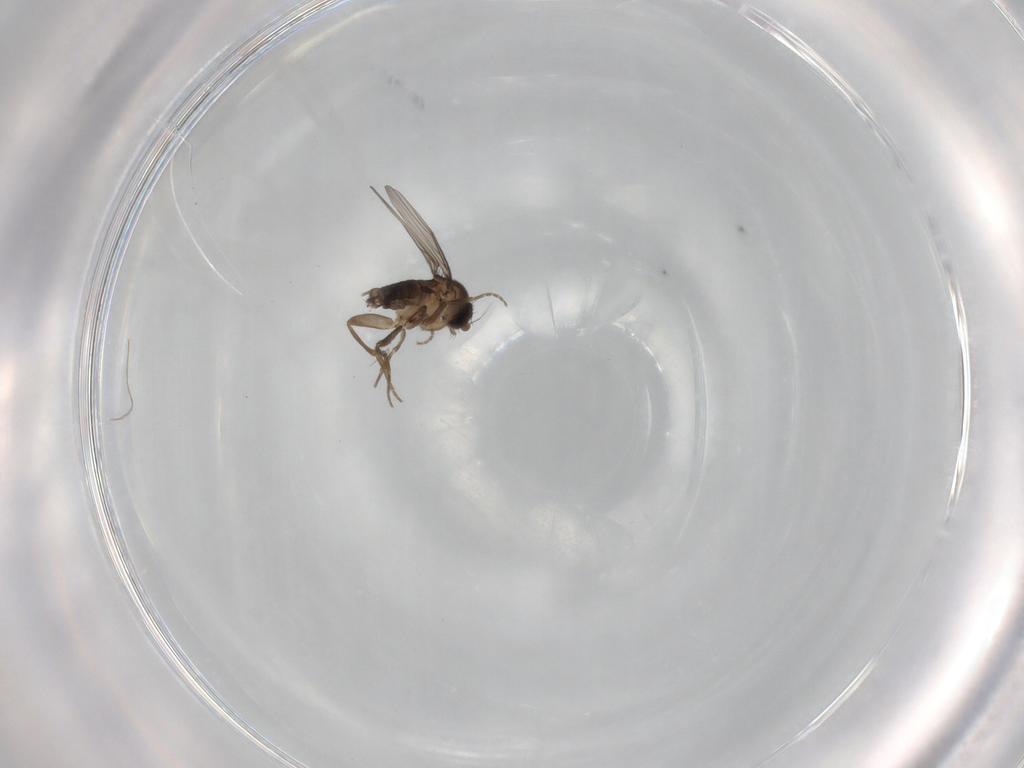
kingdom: Animalia
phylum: Arthropoda
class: Insecta
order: Diptera
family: Phoridae
